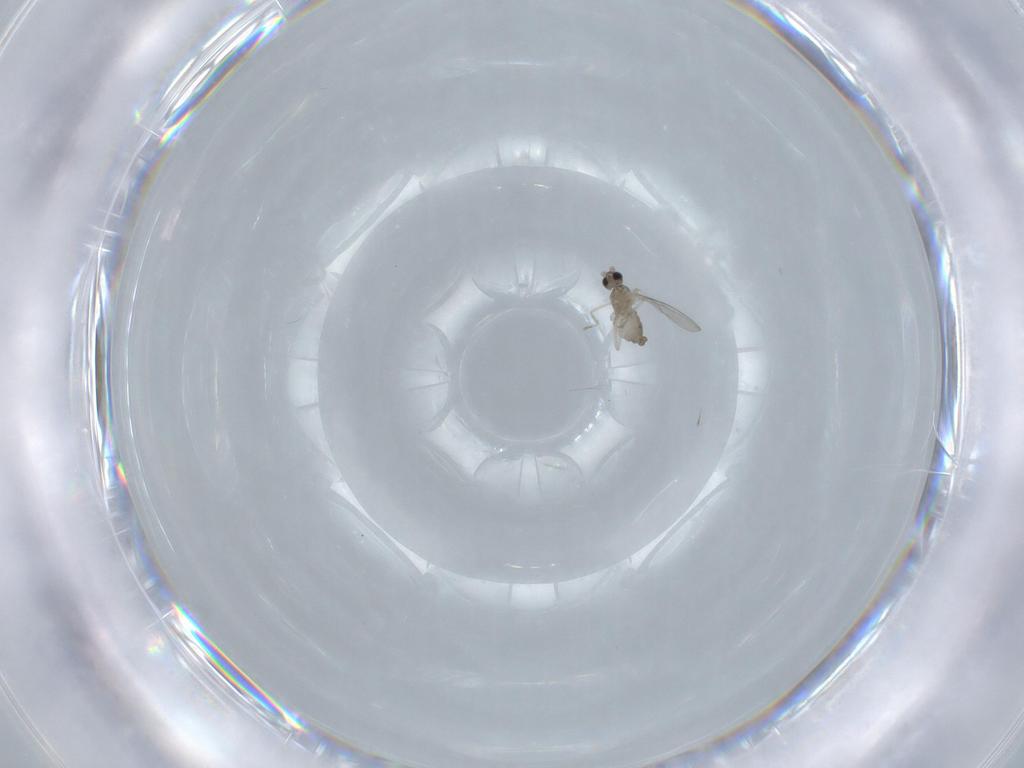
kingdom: Animalia
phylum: Arthropoda
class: Insecta
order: Diptera
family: Cecidomyiidae
